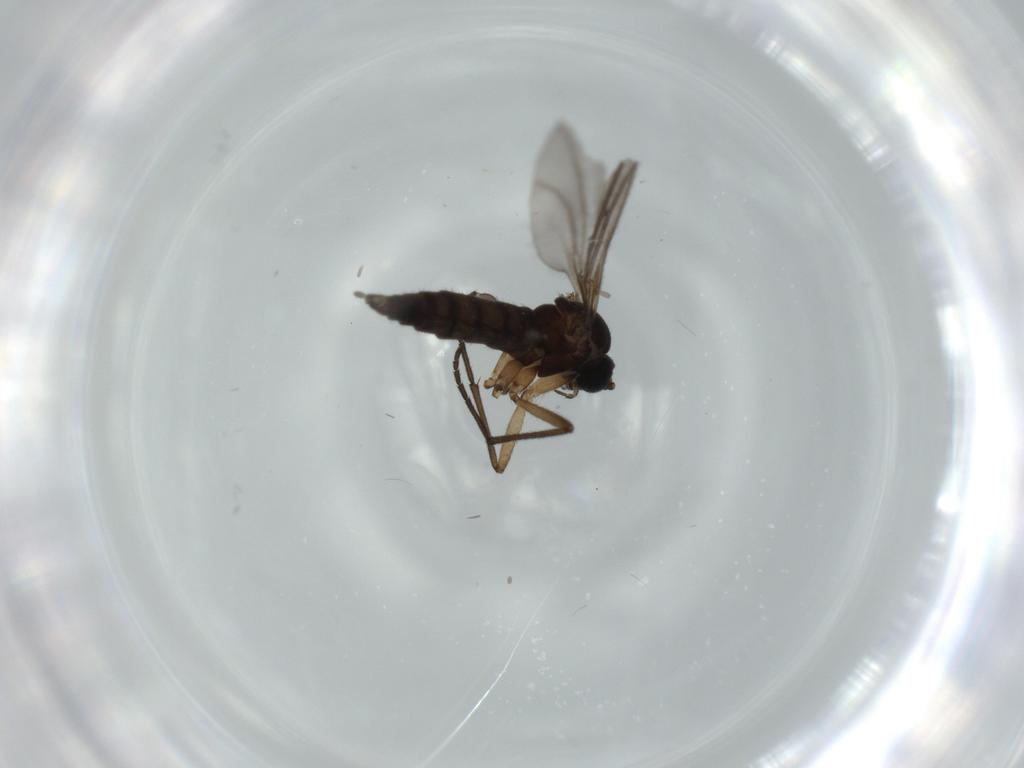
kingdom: Animalia
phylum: Arthropoda
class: Insecta
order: Diptera
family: Sciaridae
